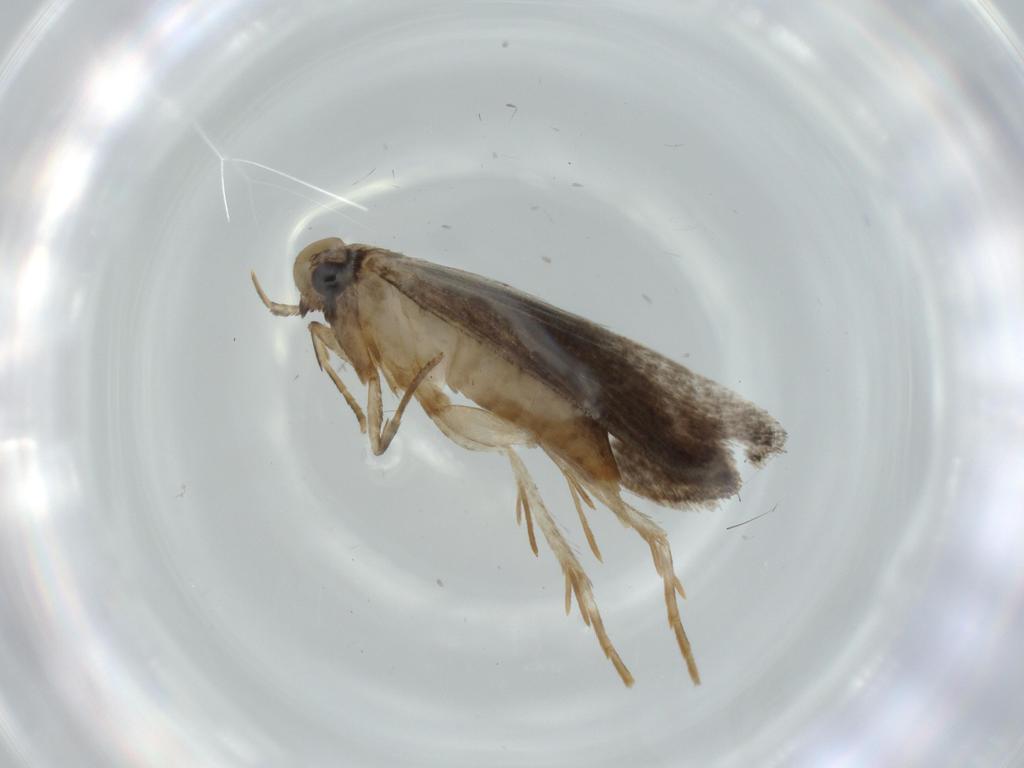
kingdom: Animalia
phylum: Arthropoda
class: Insecta
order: Lepidoptera
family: Tineidae
